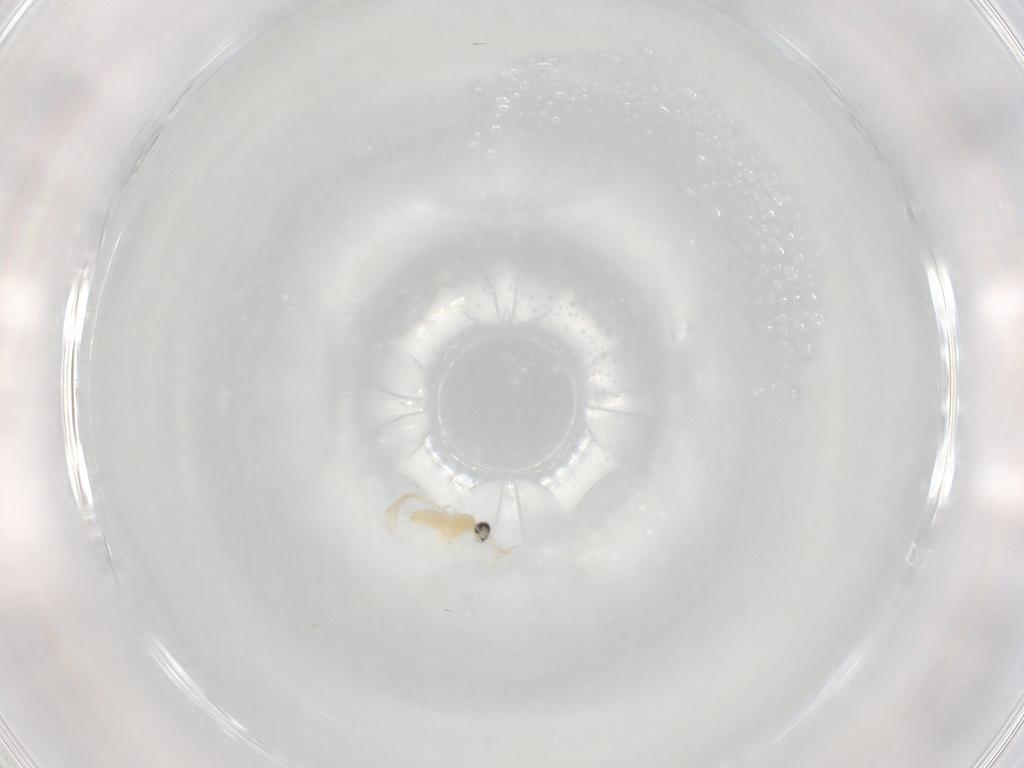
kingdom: Animalia
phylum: Arthropoda
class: Insecta
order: Diptera
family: Cecidomyiidae
